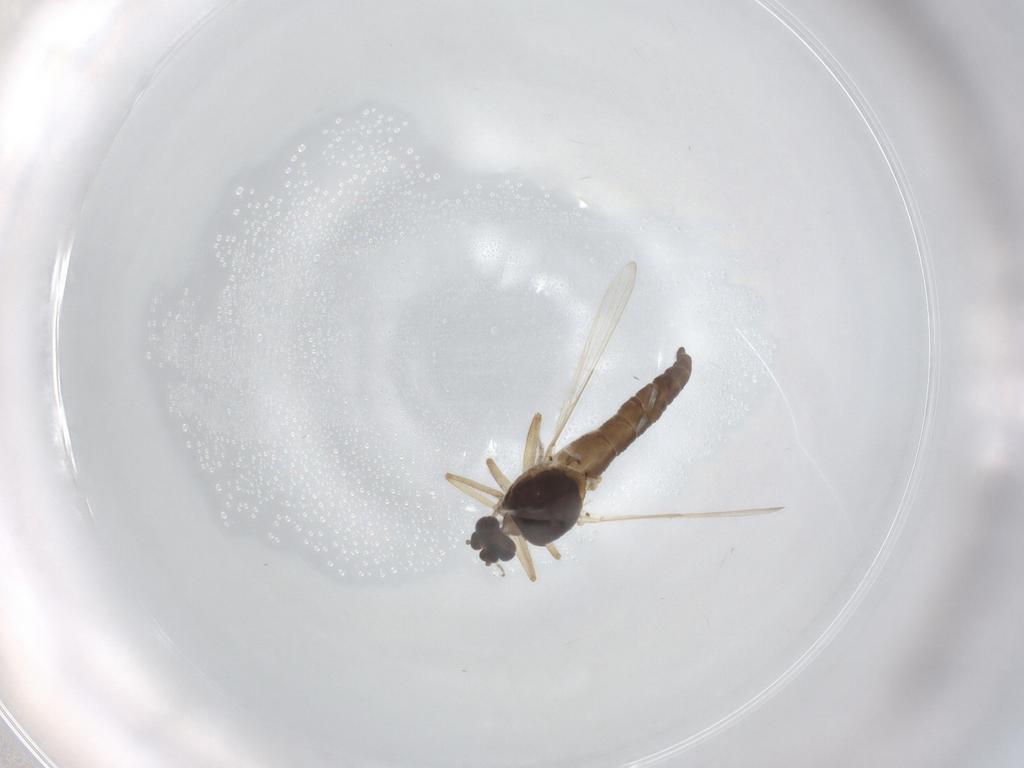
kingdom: Animalia
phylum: Arthropoda
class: Insecta
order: Diptera
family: Ceratopogonidae
